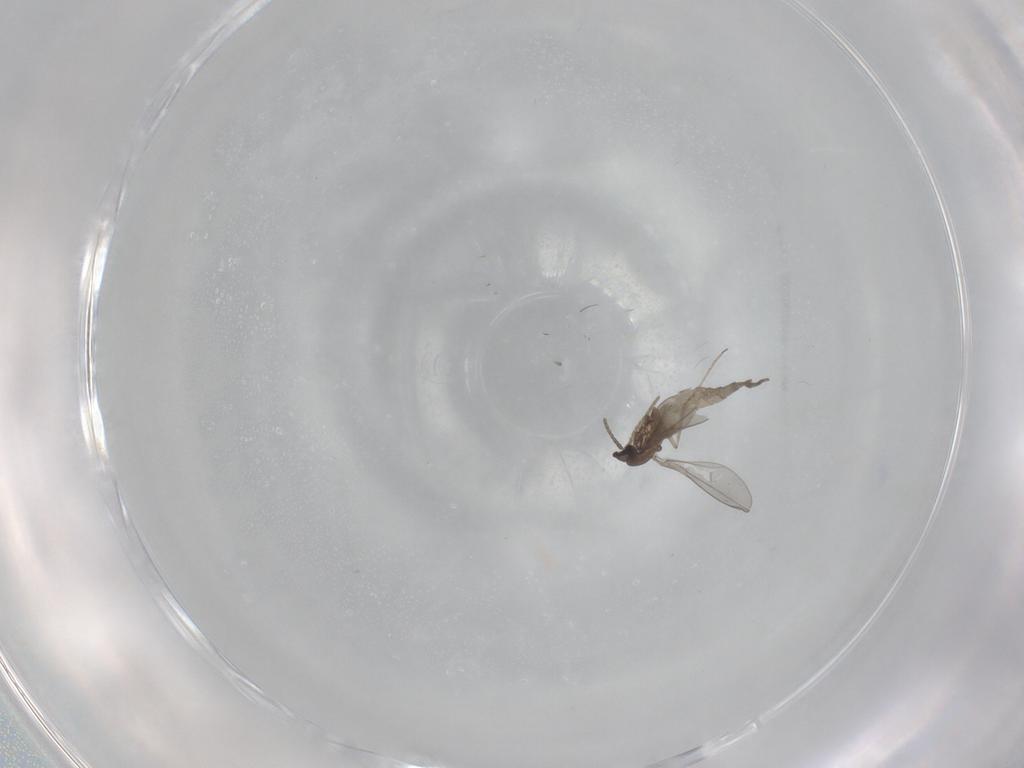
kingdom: Animalia
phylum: Arthropoda
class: Insecta
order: Diptera
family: Cecidomyiidae
